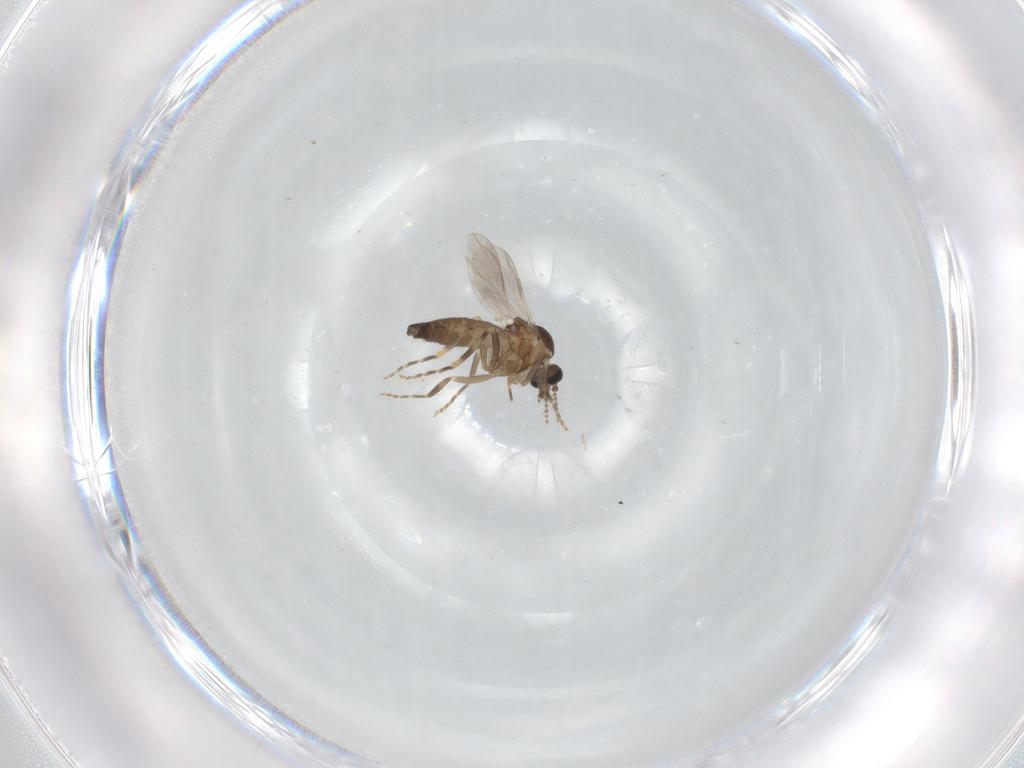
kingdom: Animalia
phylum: Arthropoda
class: Insecta
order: Diptera
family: Ceratopogonidae
